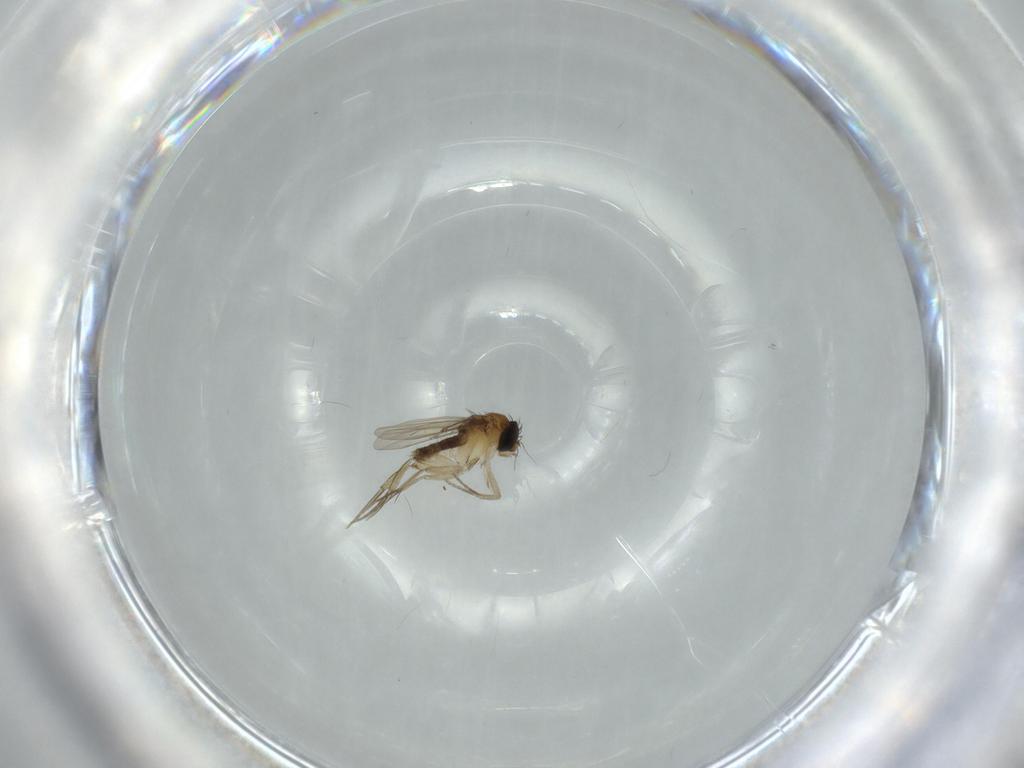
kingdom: Animalia
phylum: Arthropoda
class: Insecta
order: Diptera
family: Phoridae
